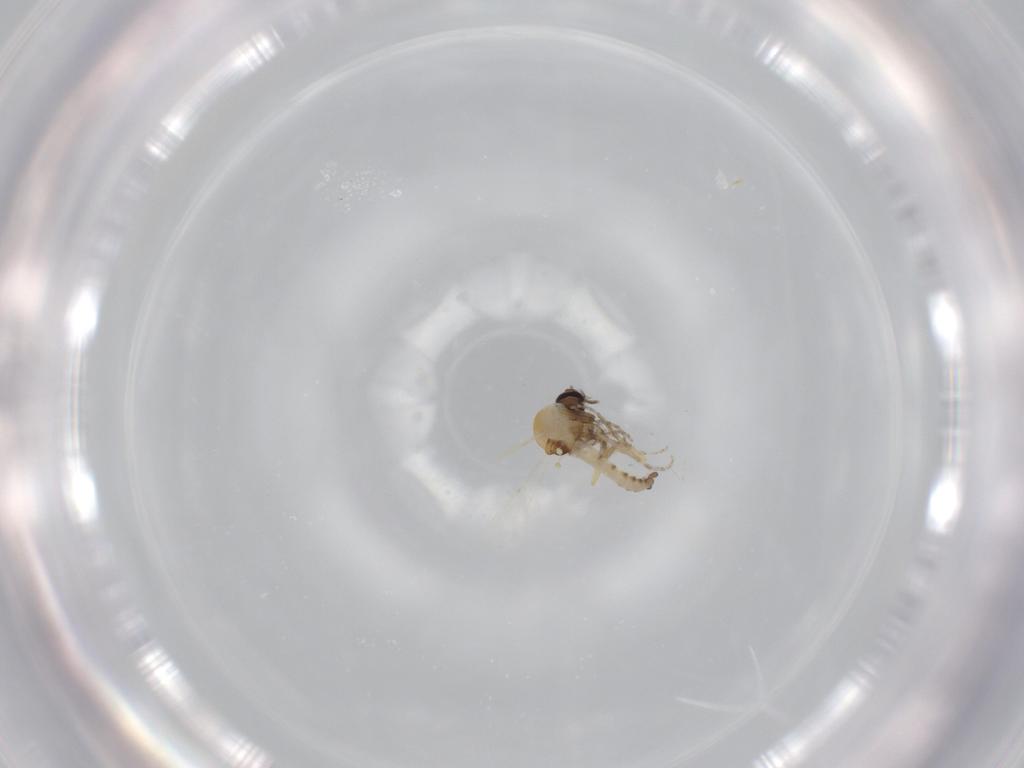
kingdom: Animalia
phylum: Arthropoda
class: Insecta
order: Diptera
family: Ceratopogonidae
